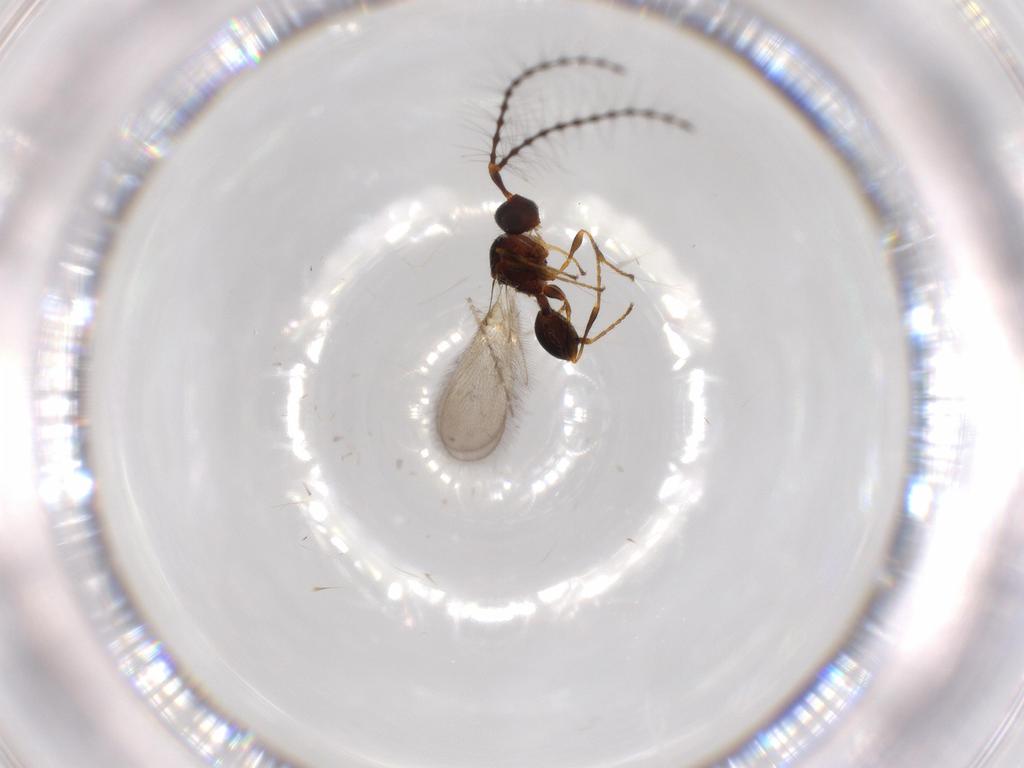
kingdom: Animalia
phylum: Arthropoda
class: Insecta
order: Hymenoptera
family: Diapriidae
